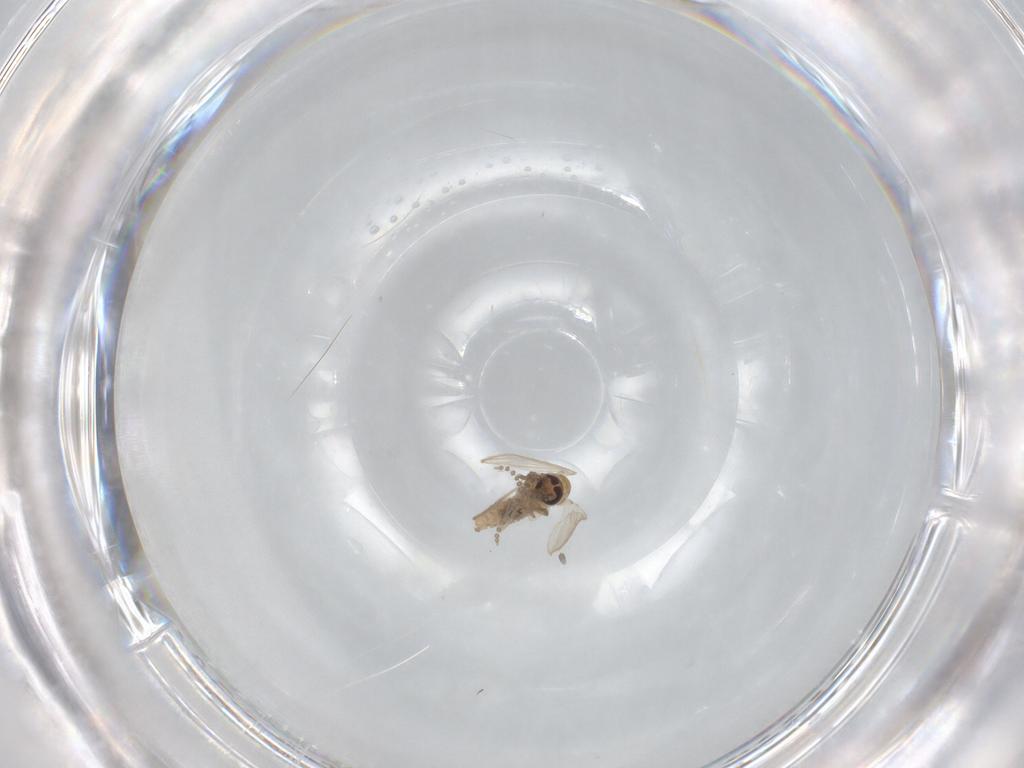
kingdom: Animalia
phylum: Arthropoda
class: Insecta
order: Diptera
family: Psychodidae
